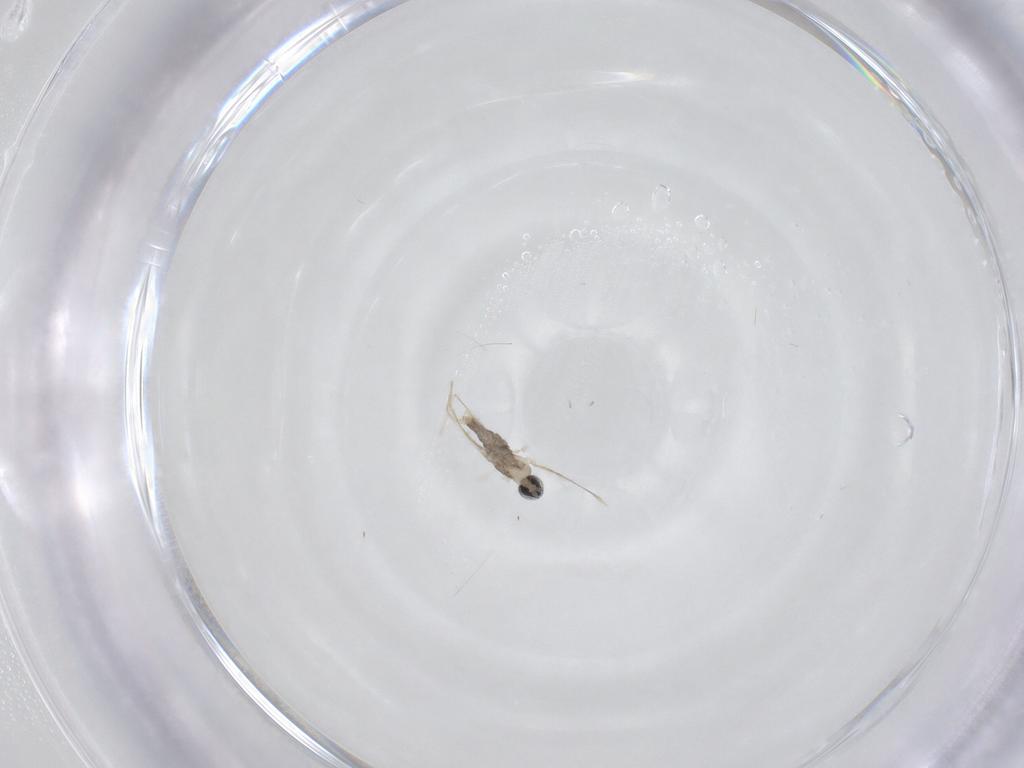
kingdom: Animalia
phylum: Arthropoda
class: Insecta
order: Diptera
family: Cecidomyiidae
